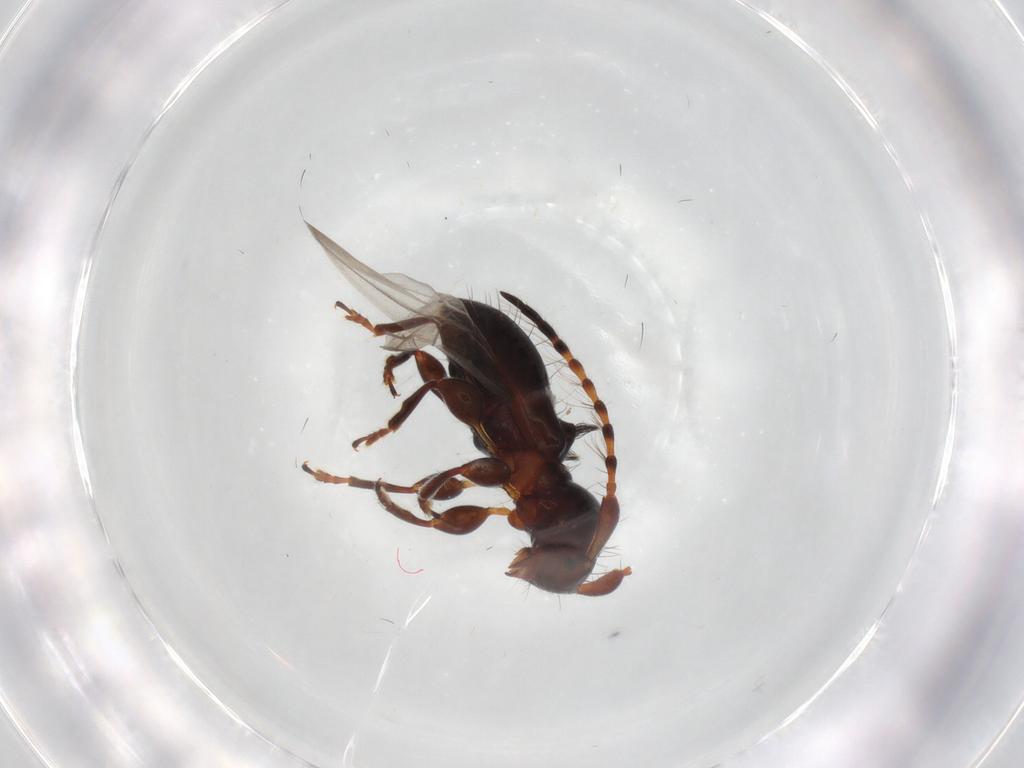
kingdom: Animalia
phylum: Arthropoda
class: Insecta
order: Coleoptera
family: Cerambycidae
